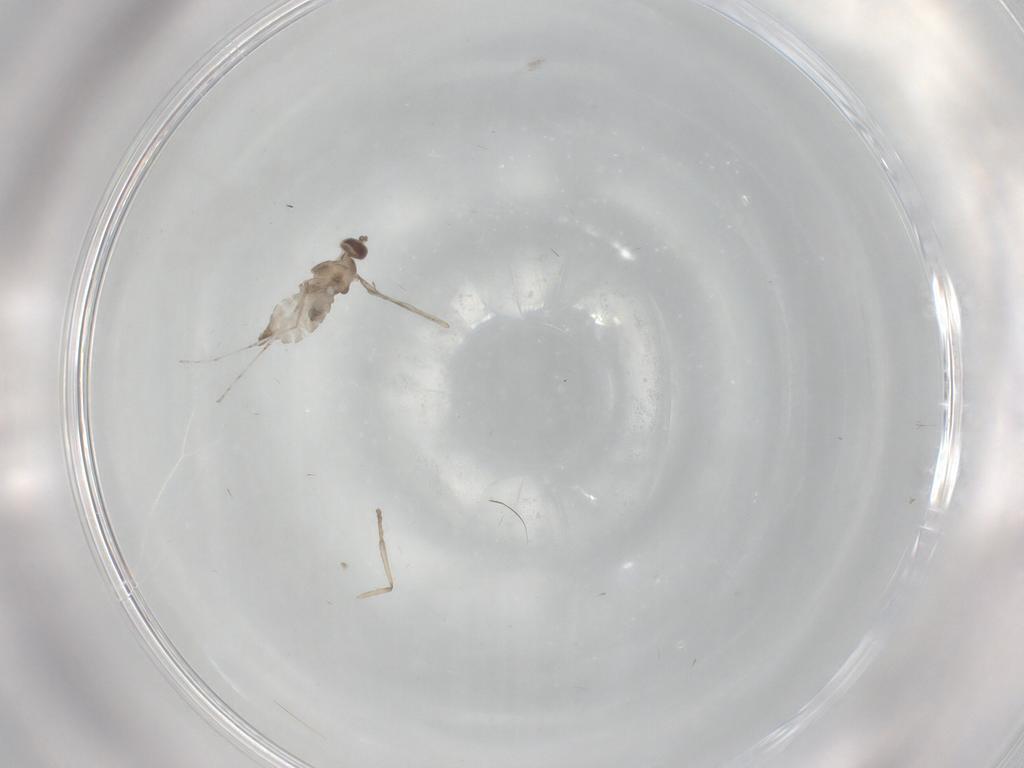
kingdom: Animalia
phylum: Arthropoda
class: Insecta
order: Diptera
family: Cecidomyiidae
